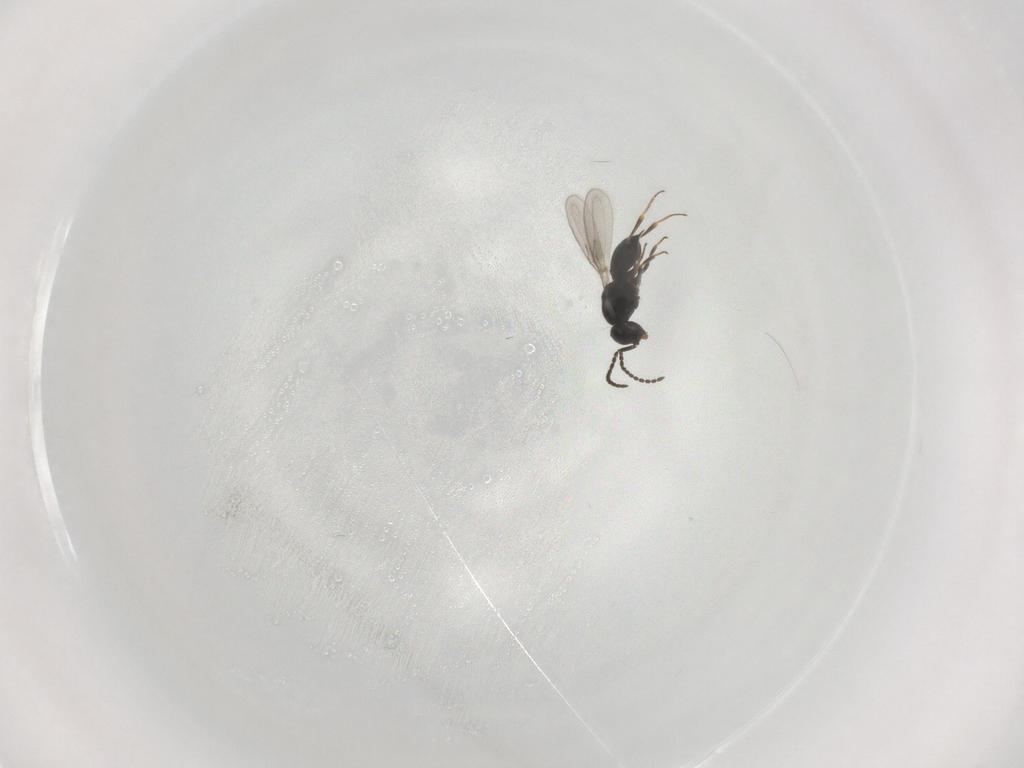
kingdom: Animalia
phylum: Arthropoda
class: Insecta
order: Hymenoptera
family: Scelionidae
